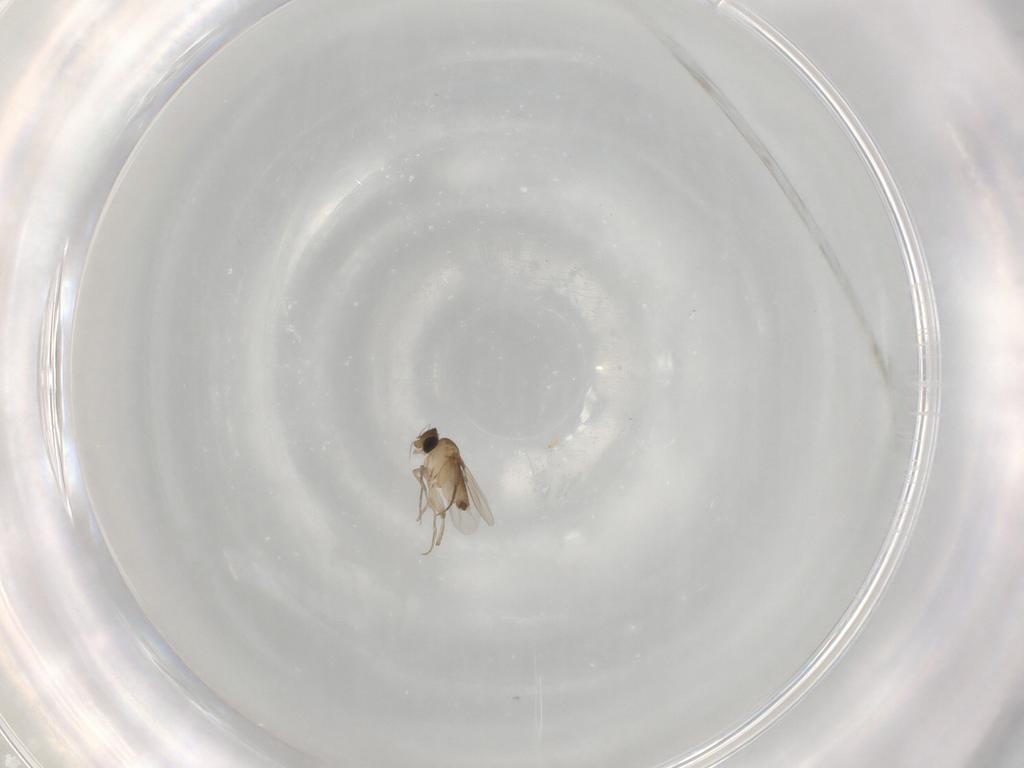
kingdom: Animalia
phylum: Arthropoda
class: Insecta
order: Diptera
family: Phoridae
